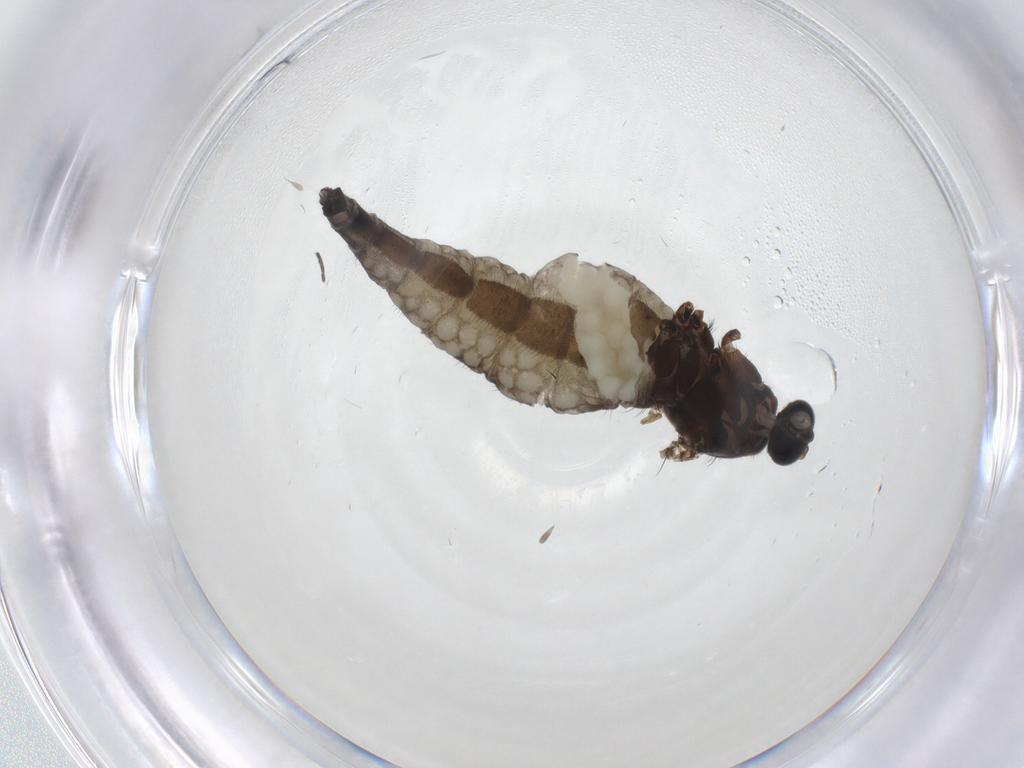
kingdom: Animalia
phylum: Arthropoda
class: Insecta
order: Diptera
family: Sciaridae
